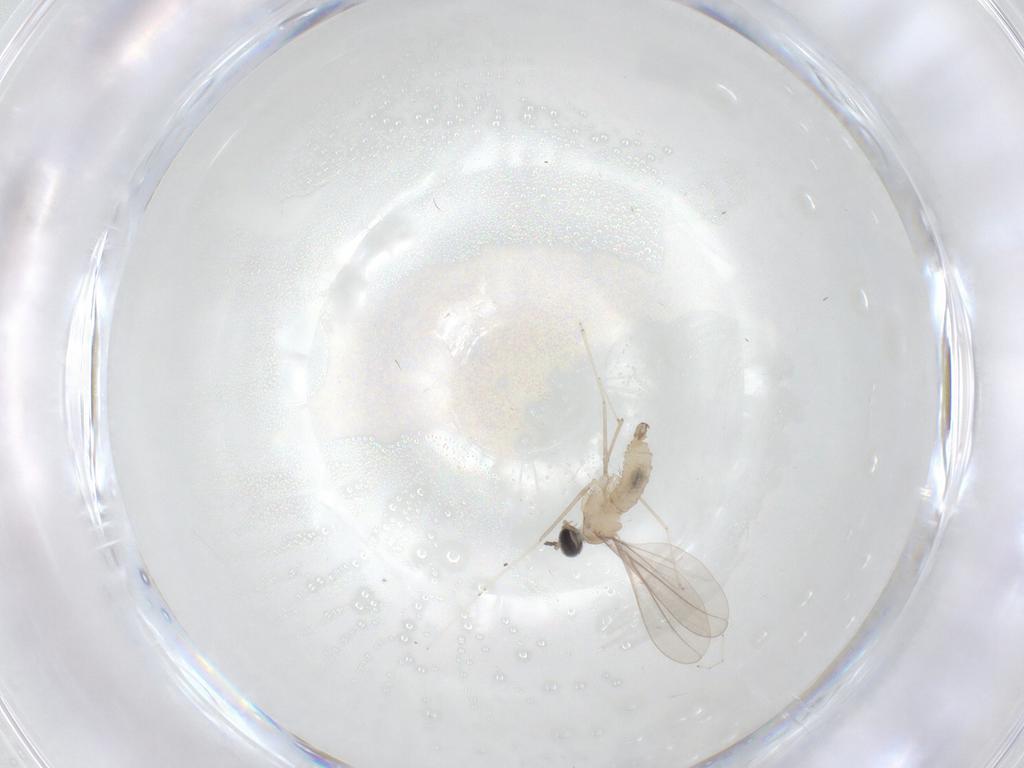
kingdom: Animalia
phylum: Arthropoda
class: Insecta
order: Diptera
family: Cecidomyiidae
